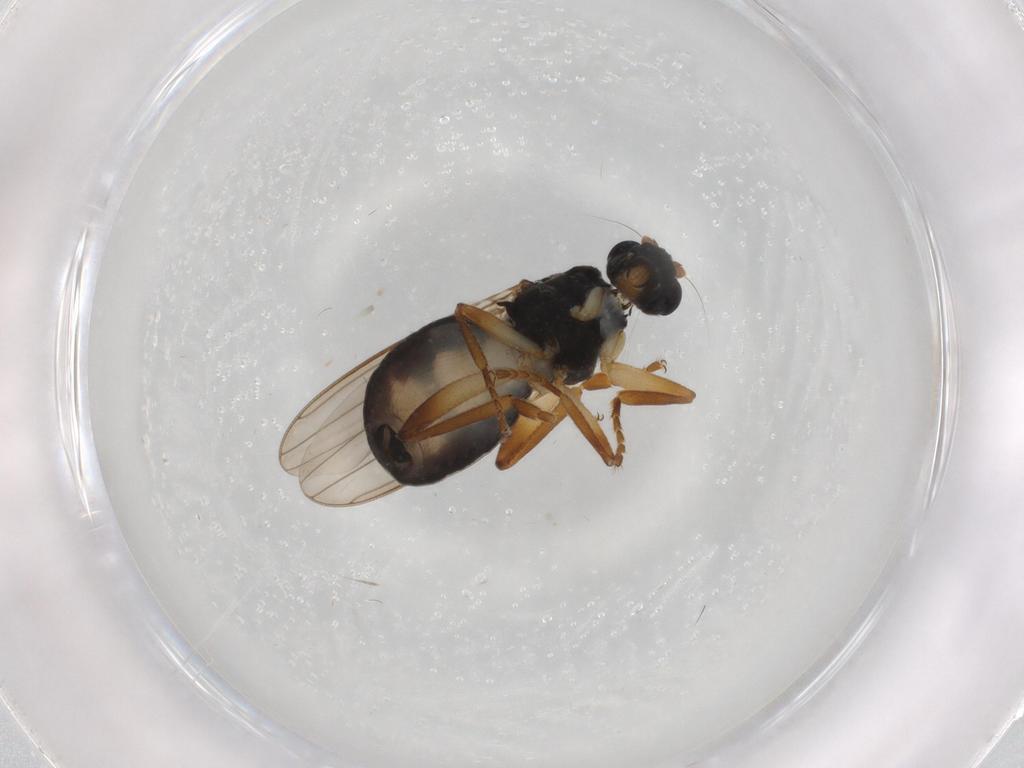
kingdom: Animalia
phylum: Arthropoda
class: Insecta
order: Diptera
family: Sphaeroceridae
